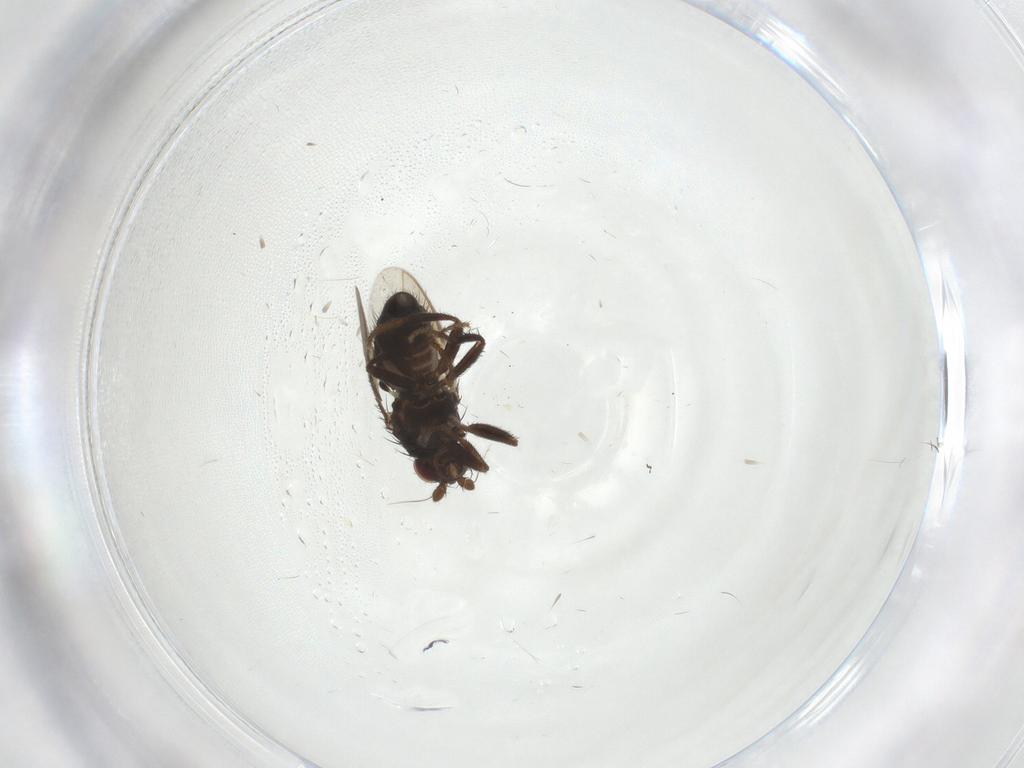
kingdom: Animalia
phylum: Arthropoda
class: Insecta
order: Diptera
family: Sphaeroceridae
